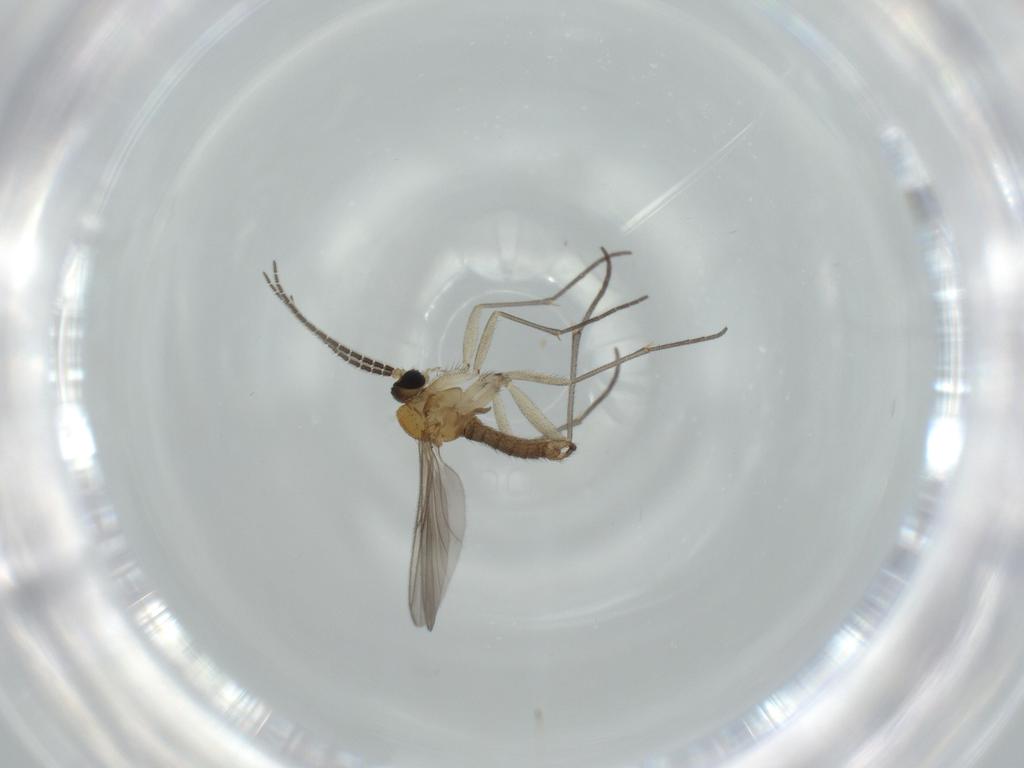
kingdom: Animalia
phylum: Arthropoda
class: Insecta
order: Diptera
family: Sciaridae
